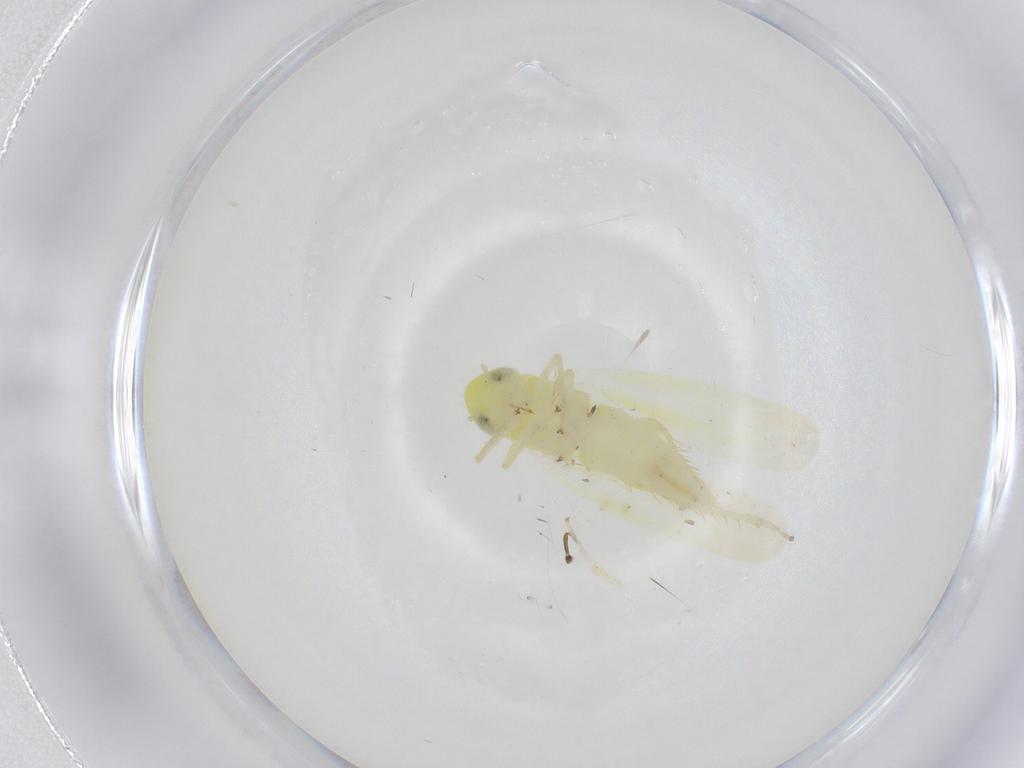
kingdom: Animalia
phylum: Arthropoda
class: Insecta
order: Hemiptera
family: Cicadellidae
